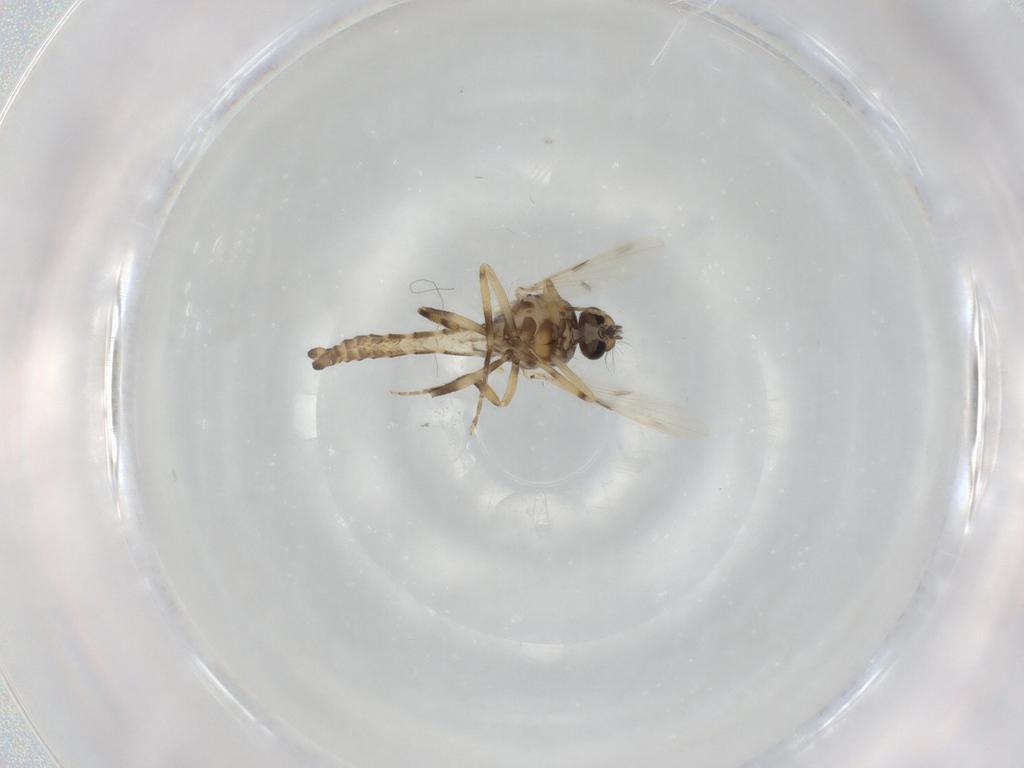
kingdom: Animalia
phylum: Arthropoda
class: Insecta
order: Diptera
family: Ceratopogonidae
